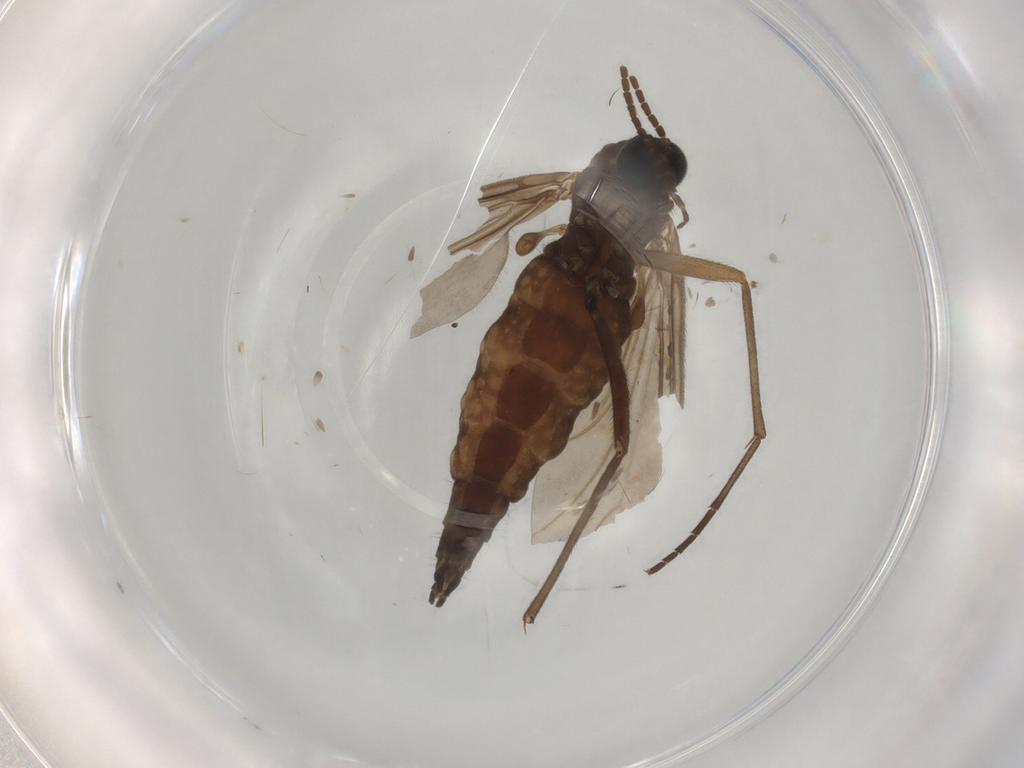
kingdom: Animalia
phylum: Arthropoda
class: Insecta
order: Diptera
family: Sciaridae
